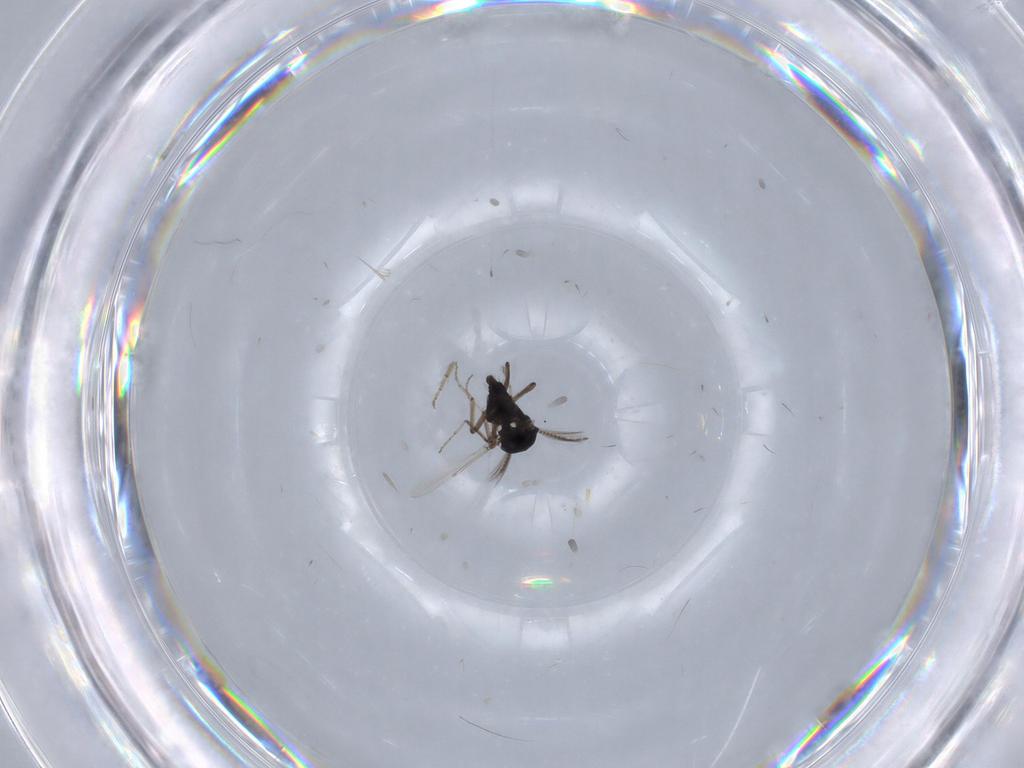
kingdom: Animalia
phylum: Arthropoda
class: Insecta
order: Diptera
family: Ceratopogonidae
